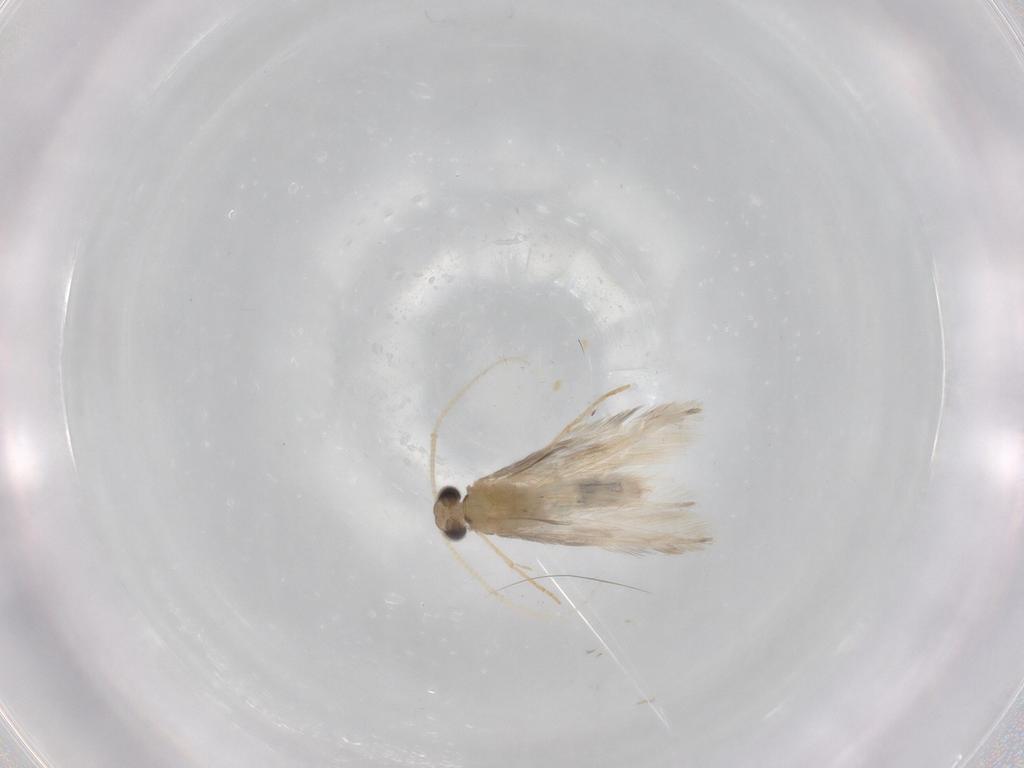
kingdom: Animalia
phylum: Arthropoda
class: Insecta
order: Trichoptera
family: Hydroptilidae
